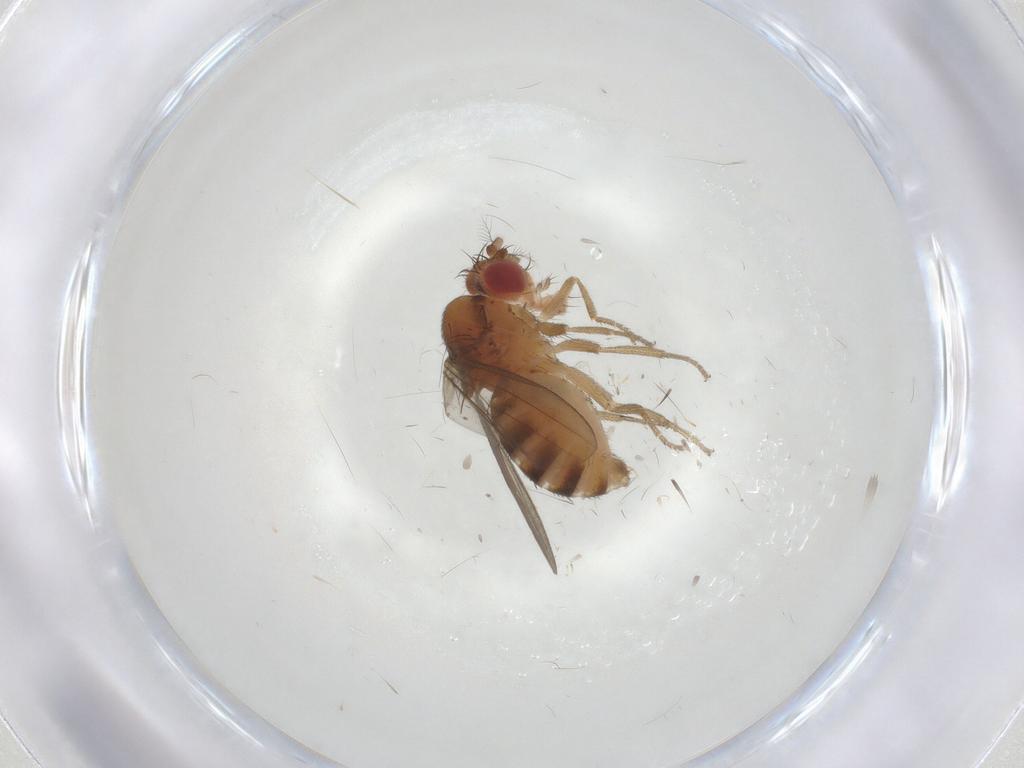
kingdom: Animalia
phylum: Arthropoda
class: Insecta
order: Diptera
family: Drosophilidae
